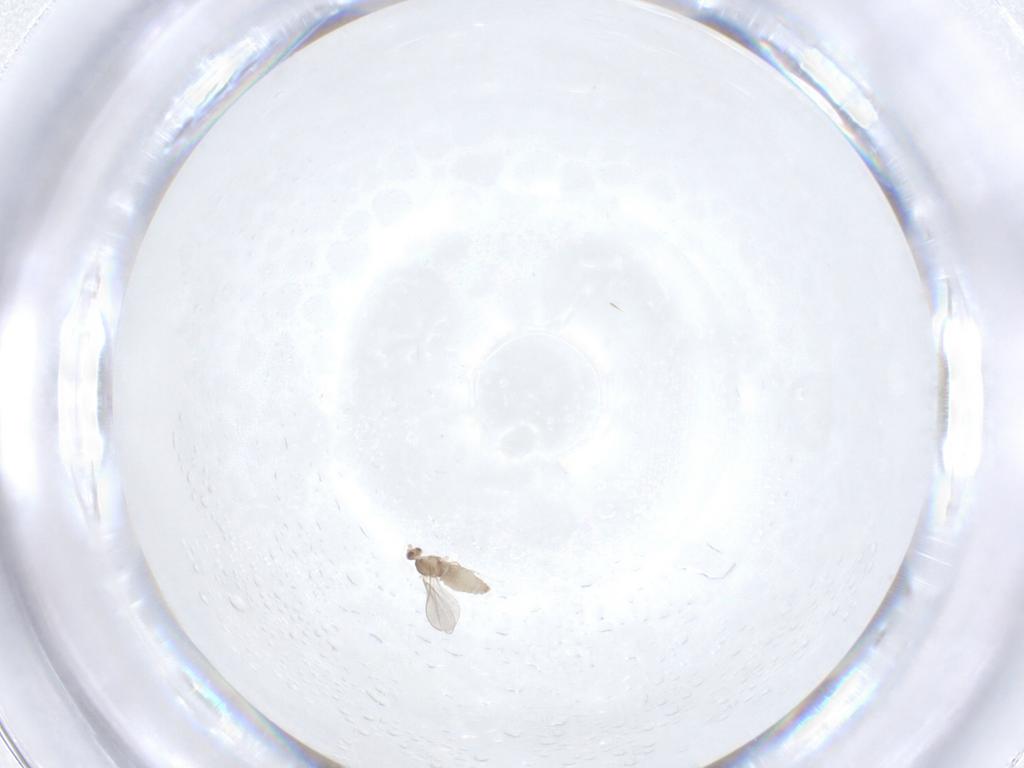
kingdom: Animalia
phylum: Arthropoda
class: Insecta
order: Diptera
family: Cecidomyiidae
